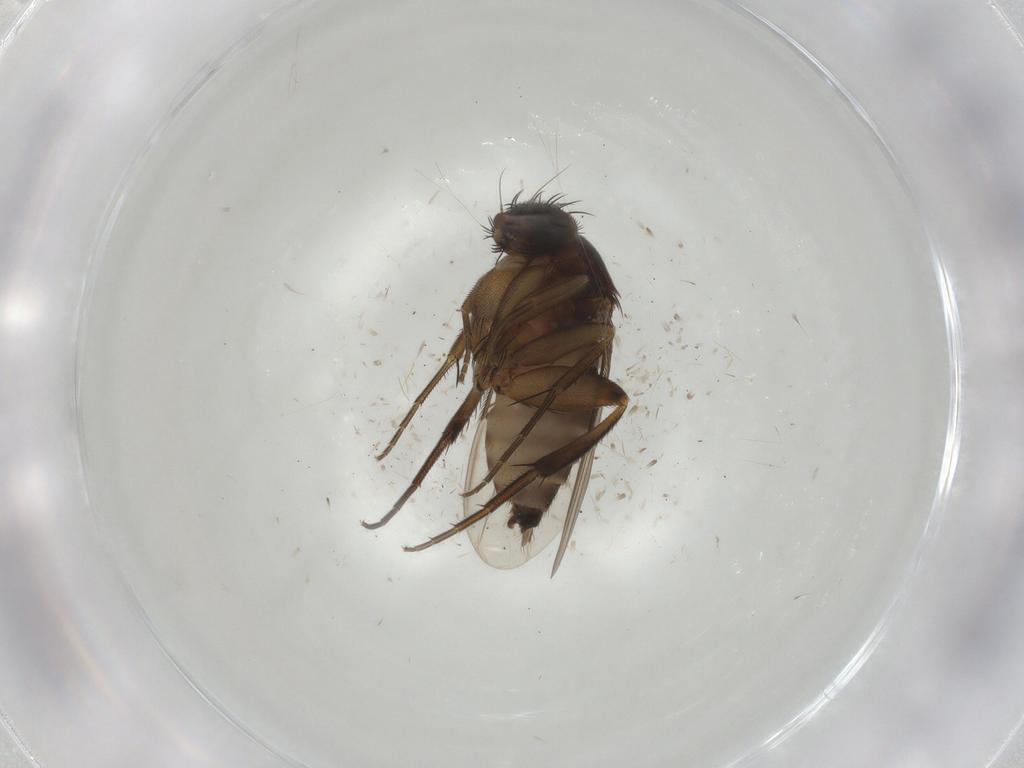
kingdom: Animalia
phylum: Arthropoda
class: Insecta
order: Diptera
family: Phoridae
